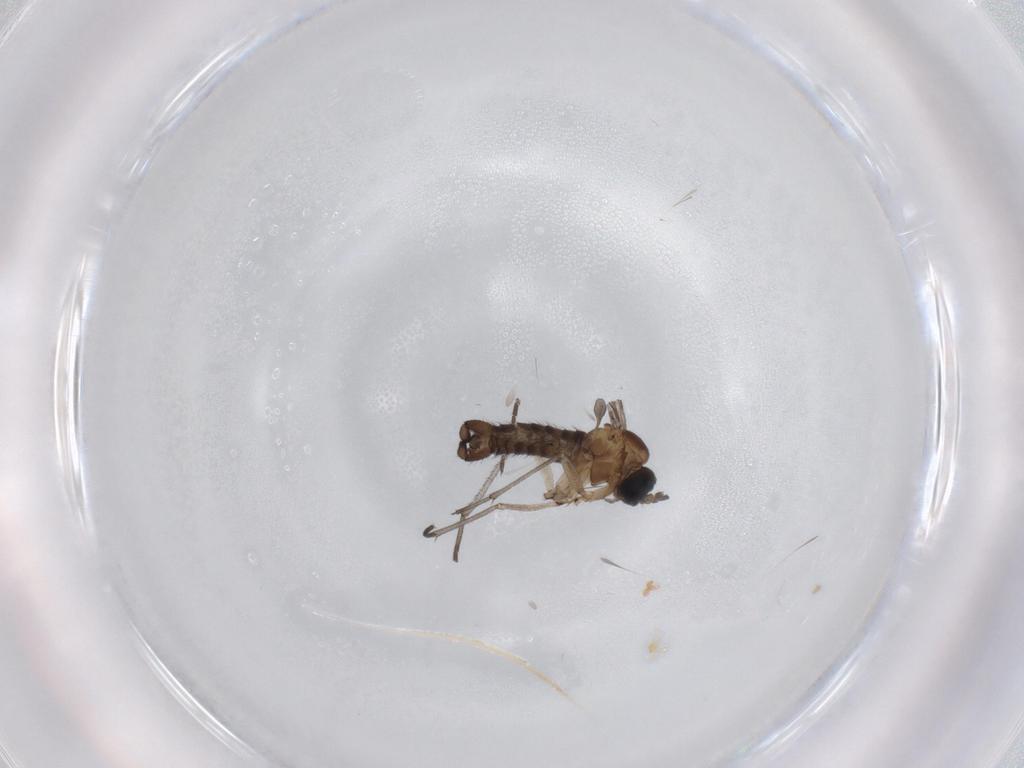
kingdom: Animalia
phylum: Arthropoda
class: Insecta
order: Diptera
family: Sciaridae
